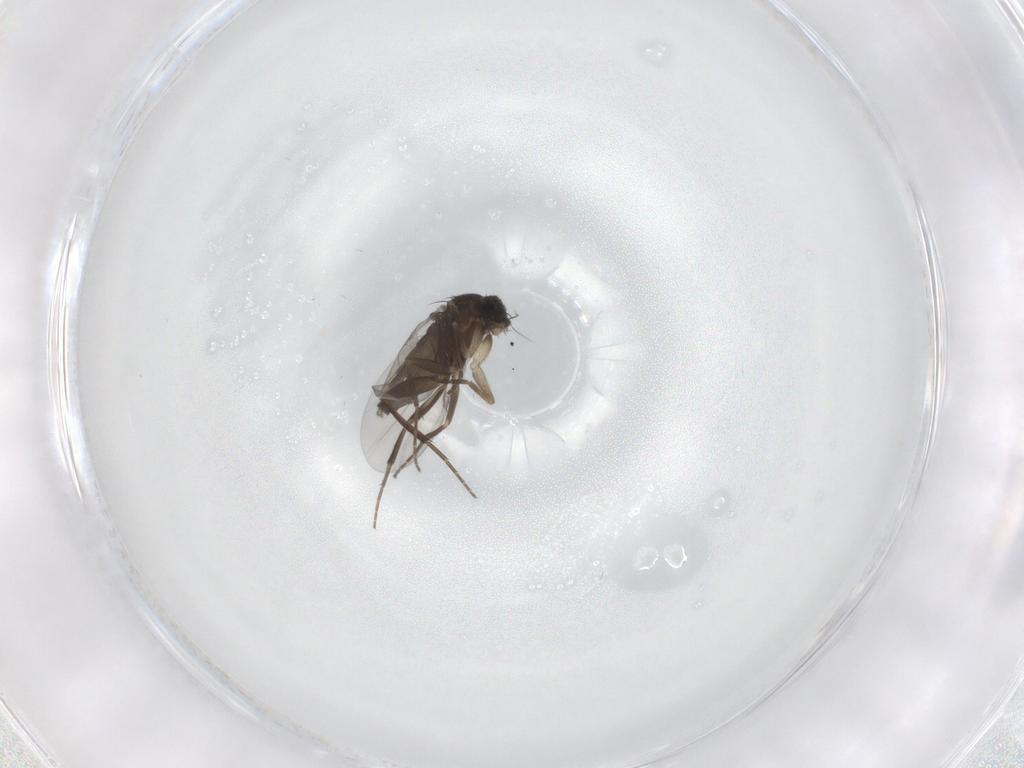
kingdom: Animalia
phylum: Arthropoda
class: Insecta
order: Diptera
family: Phoridae
